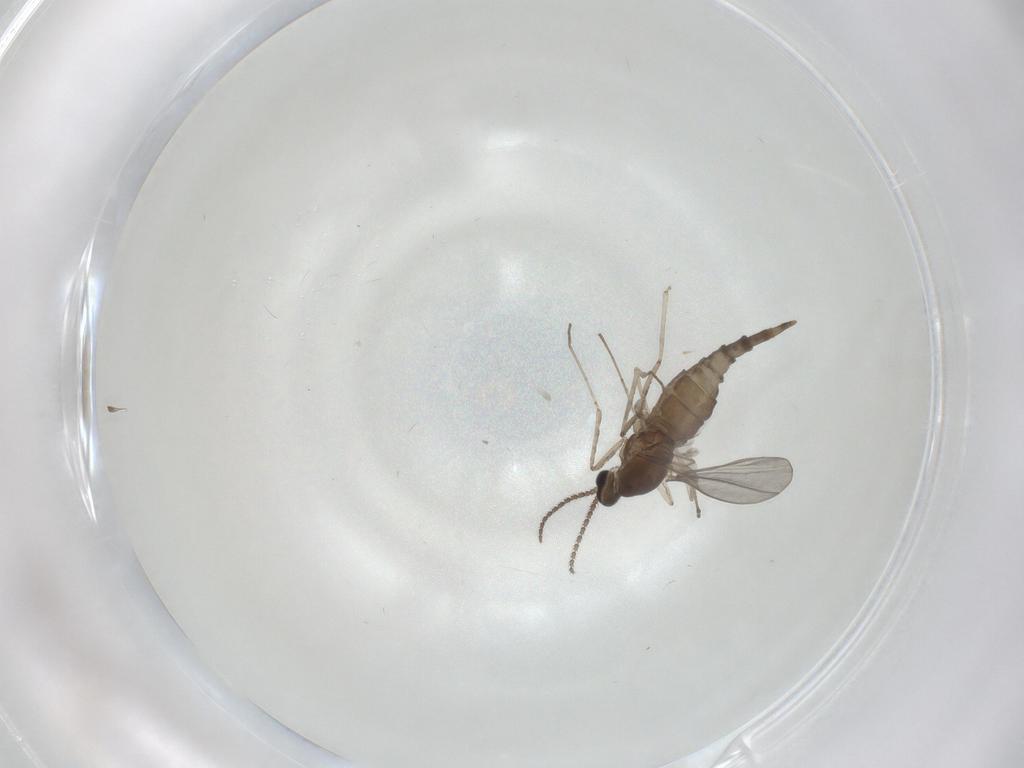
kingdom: Animalia
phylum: Arthropoda
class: Insecta
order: Diptera
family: Cecidomyiidae
